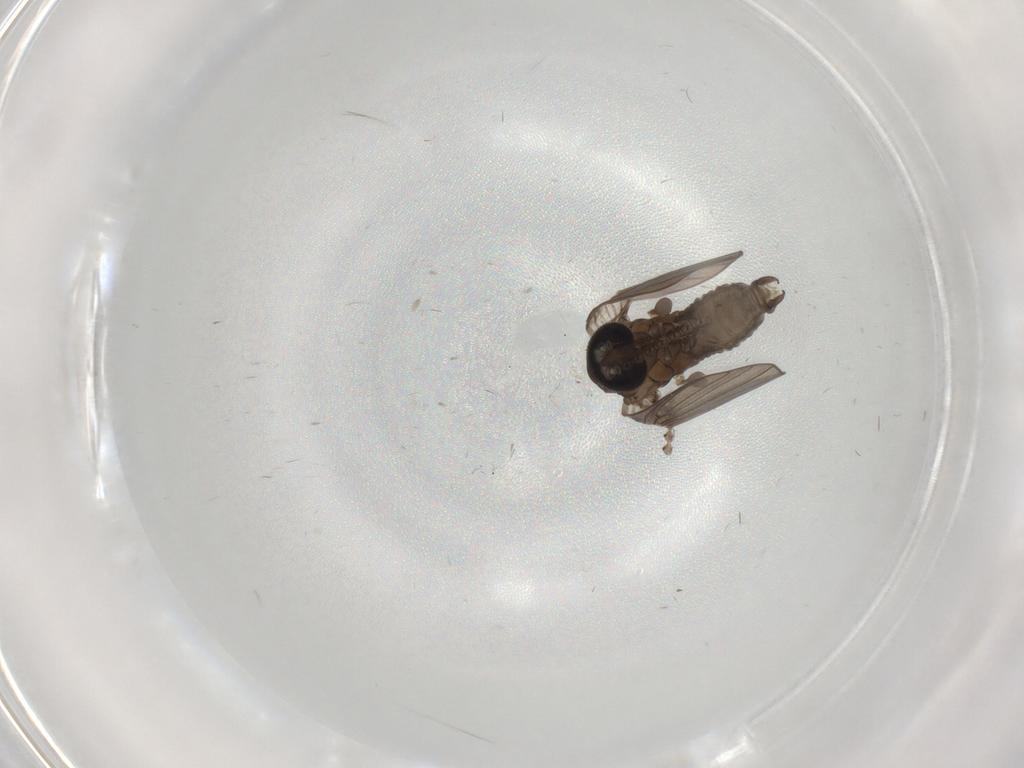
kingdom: Animalia
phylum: Arthropoda
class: Insecta
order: Diptera
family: Psychodidae
